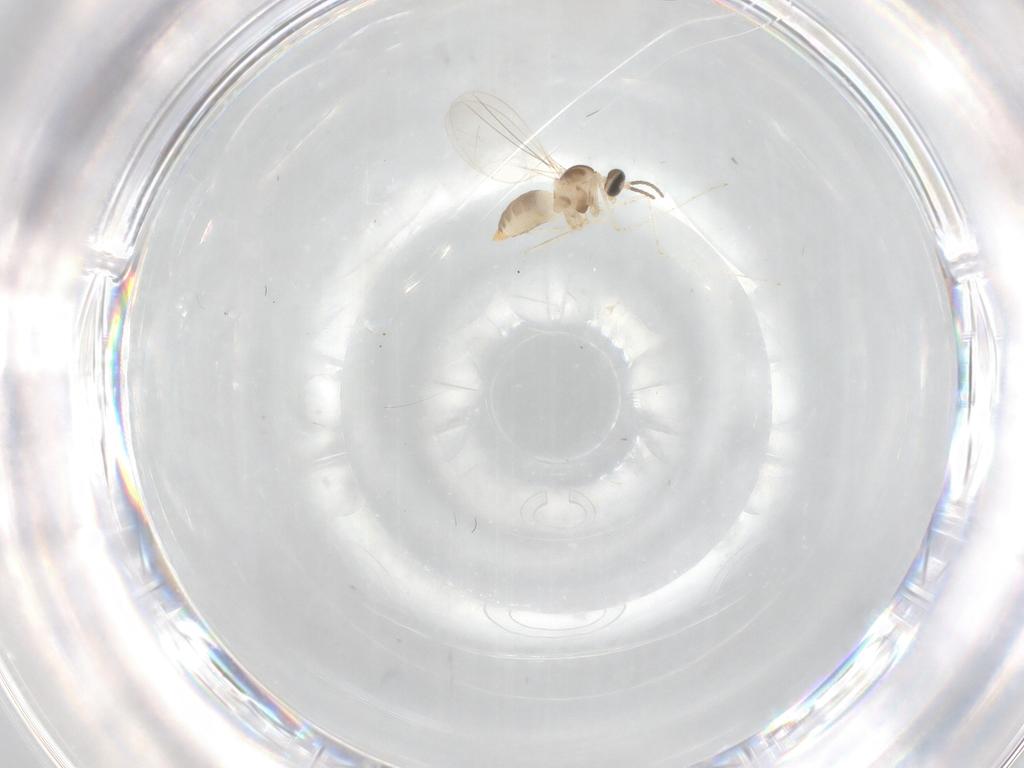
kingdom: Animalia
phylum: Arthropoda
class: Insecta
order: Diptera
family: Cecidomyiidae
